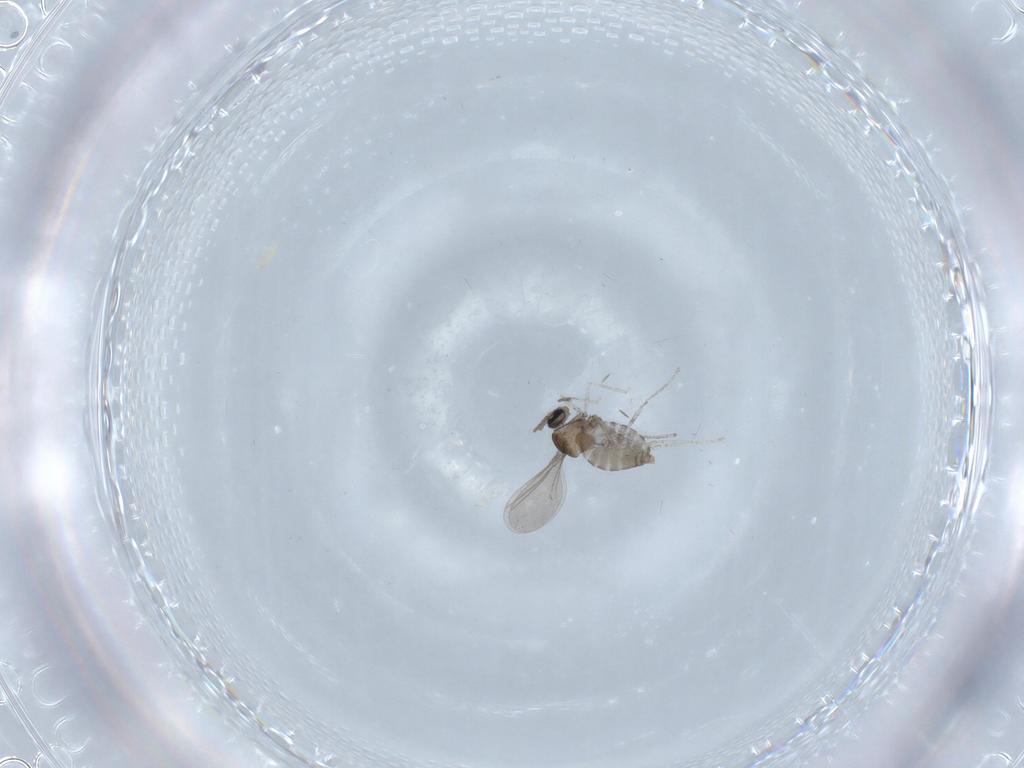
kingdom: Animalia
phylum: Arthropoda
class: Insecta
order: Diptera
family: Cecidomyiidae
